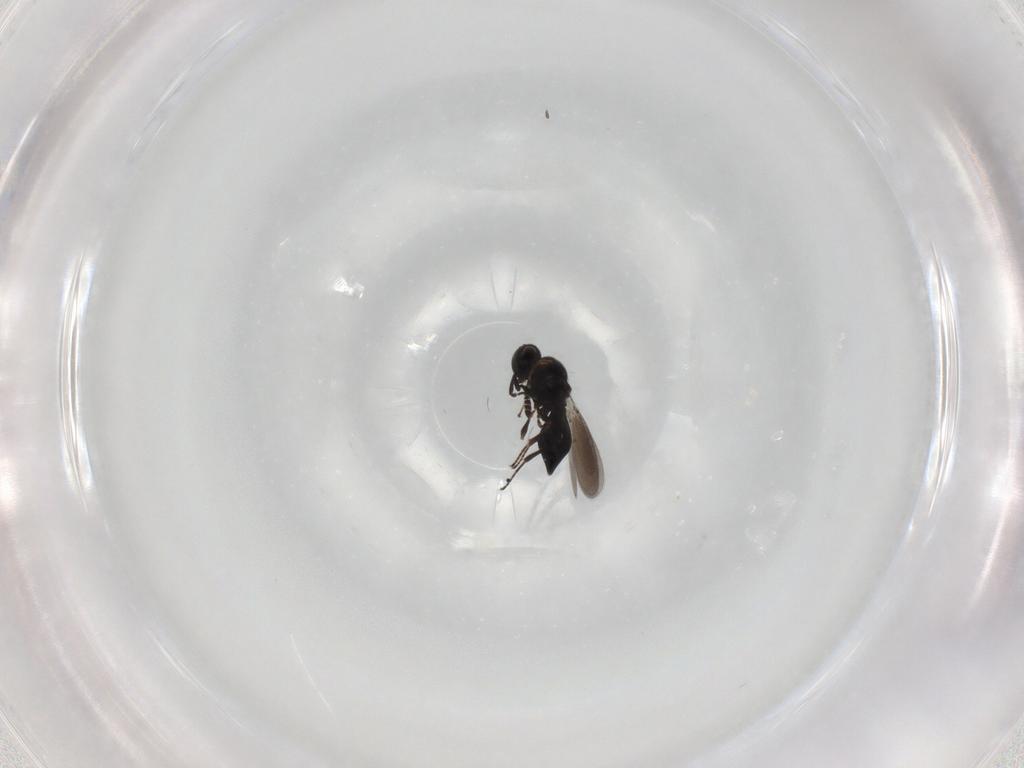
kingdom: Animalia
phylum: Arthropoda
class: Insecta
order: Hymenoptera
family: Platygastridae
